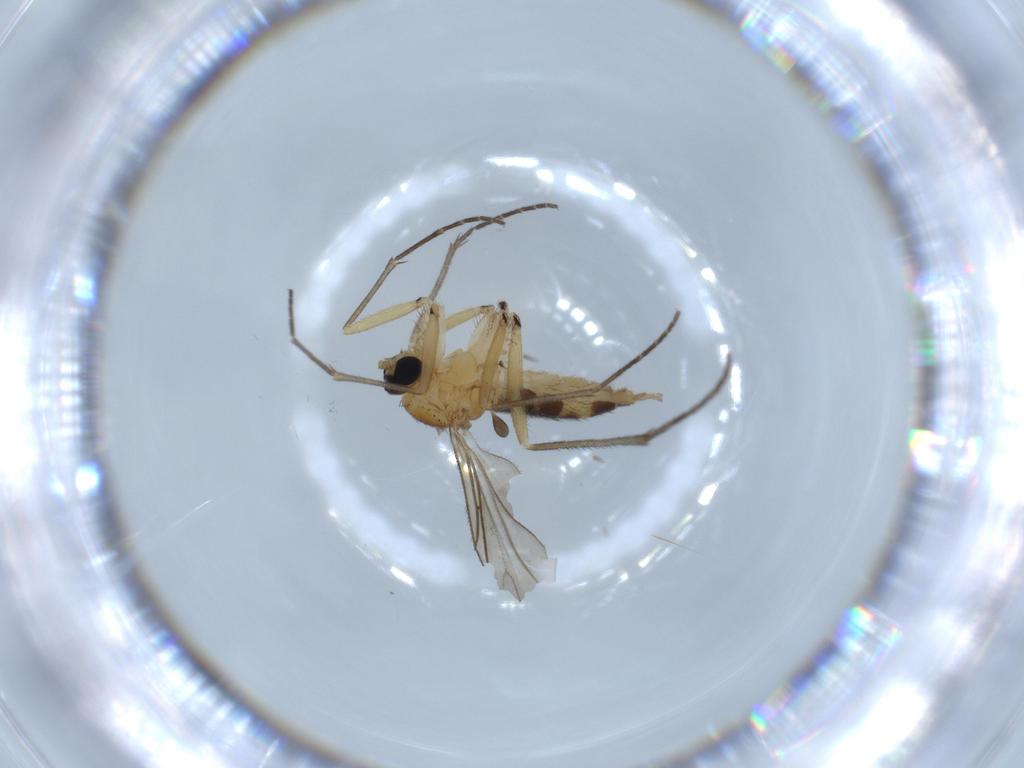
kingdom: Animalia
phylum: Arthropoda
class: Insecta
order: Diptera
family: Sciaridae
